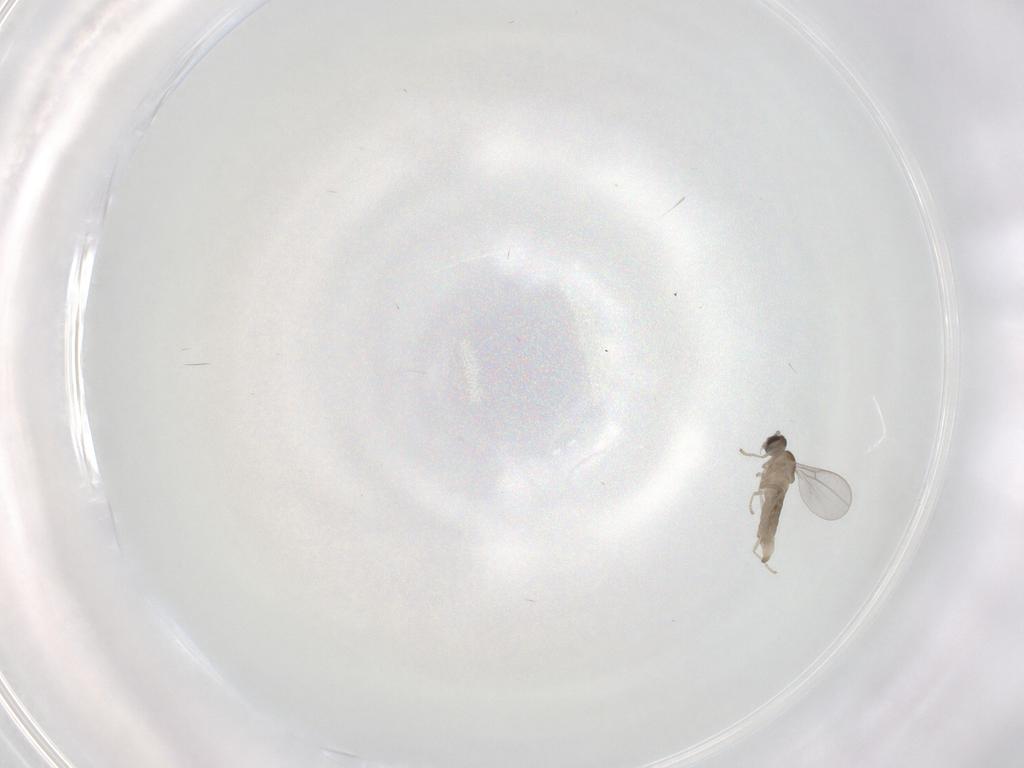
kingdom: Animalia
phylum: Arthropoda
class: Insecta
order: Diptera
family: Cecidomyiidae
